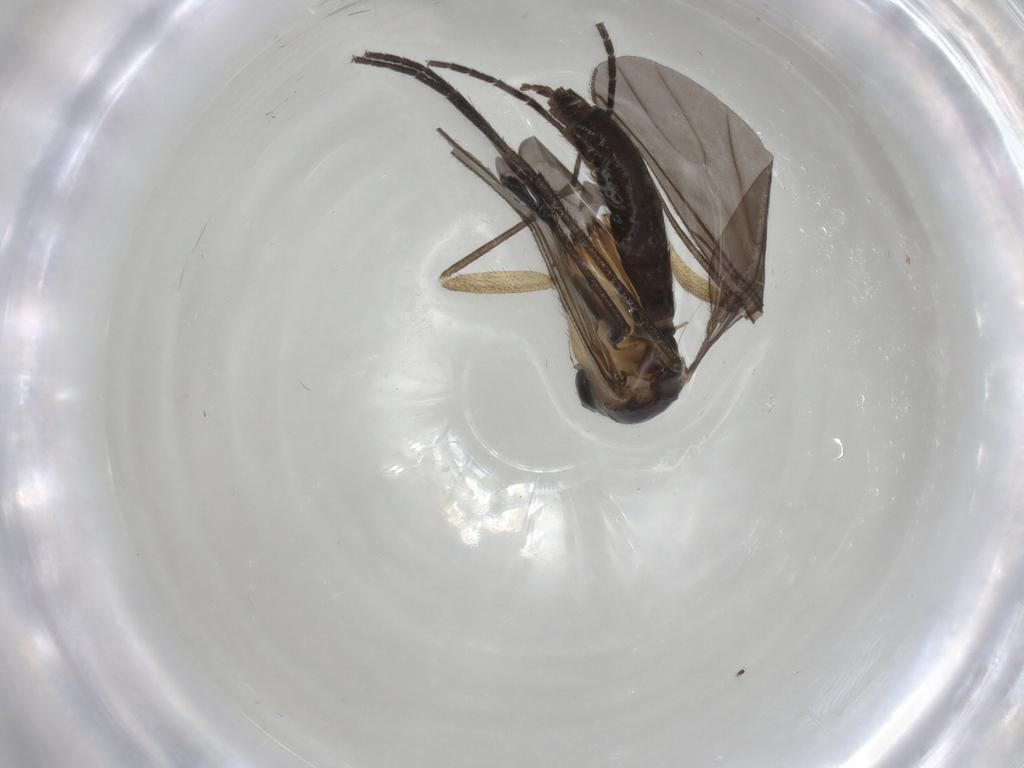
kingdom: Animalia
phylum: Arthropoda
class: Insecta
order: Diptera
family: Sciaridae
